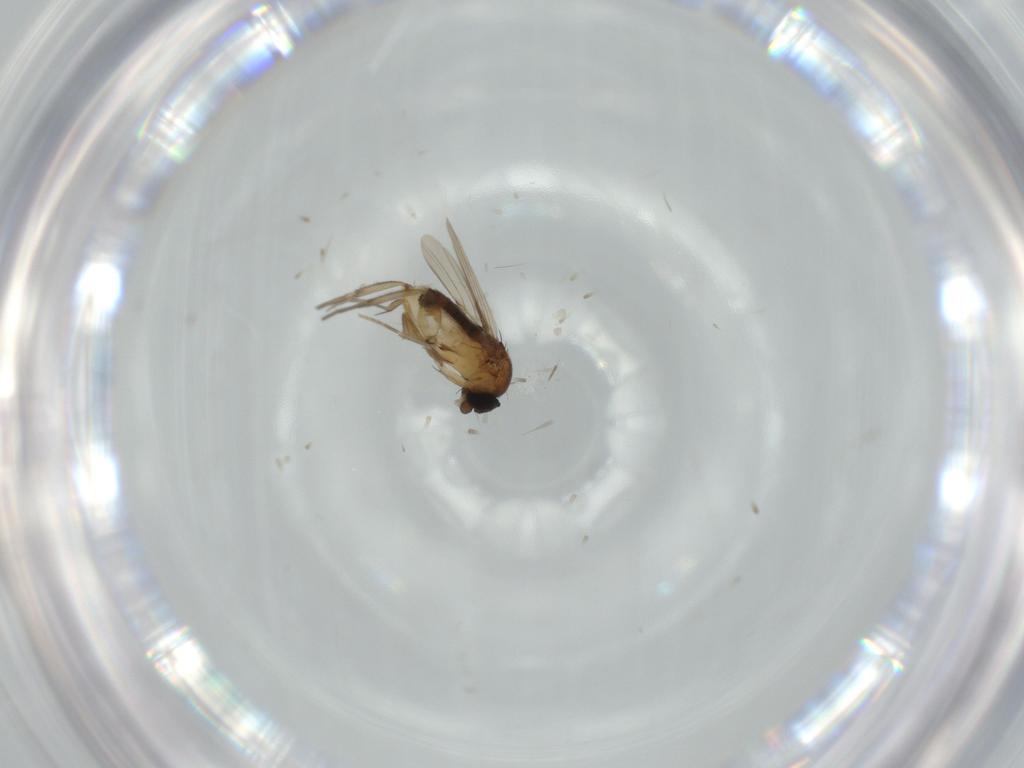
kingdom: Animalia
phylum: Arthropoda
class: Insecta
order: Diptera
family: Phoridae
